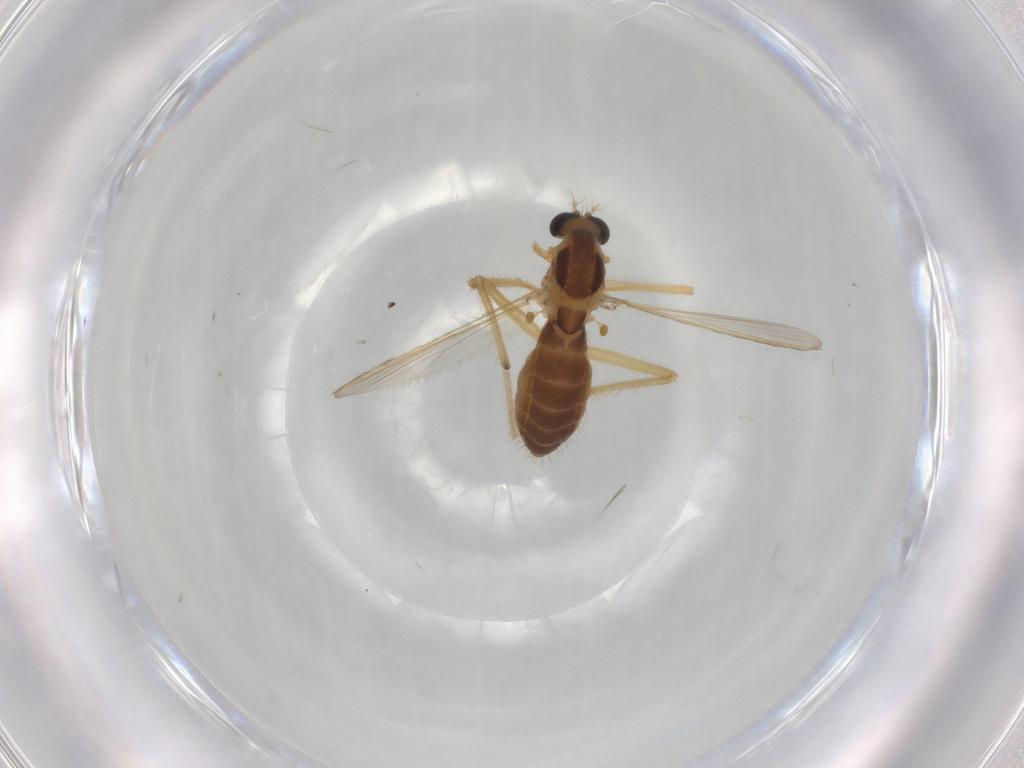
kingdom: Animalia
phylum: Arthropoda
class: Insecta
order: Diptera
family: Chironomidae
